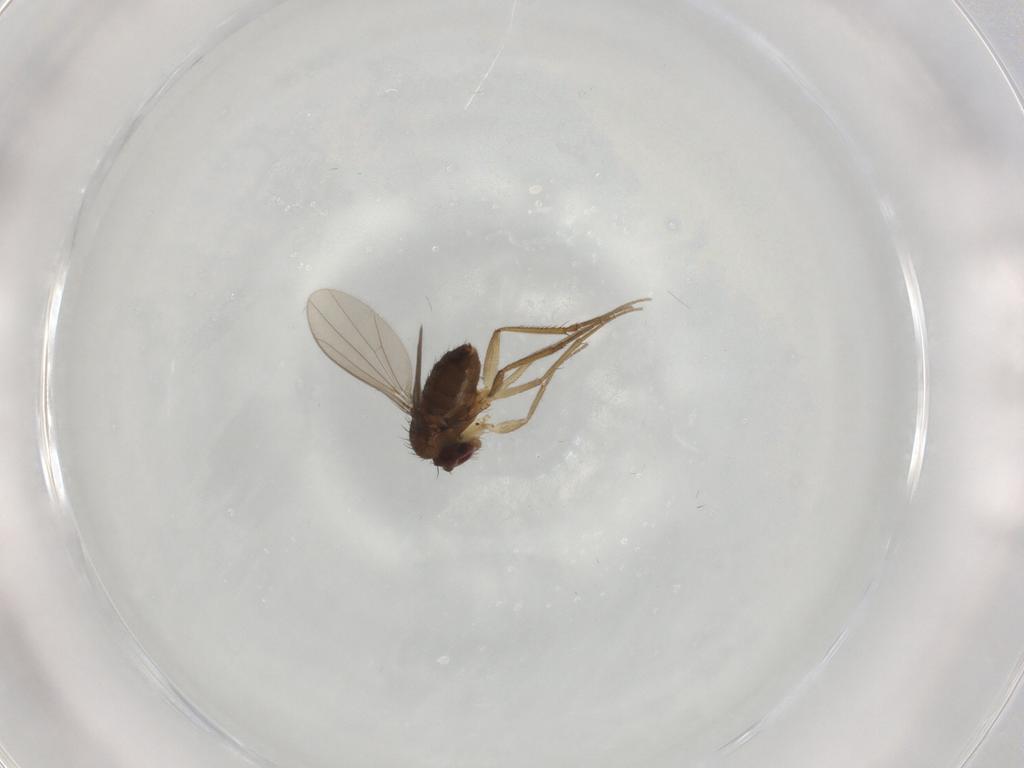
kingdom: Animalia
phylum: Arthropoda
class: Insecta
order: Diptera
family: Dolichopodidae
